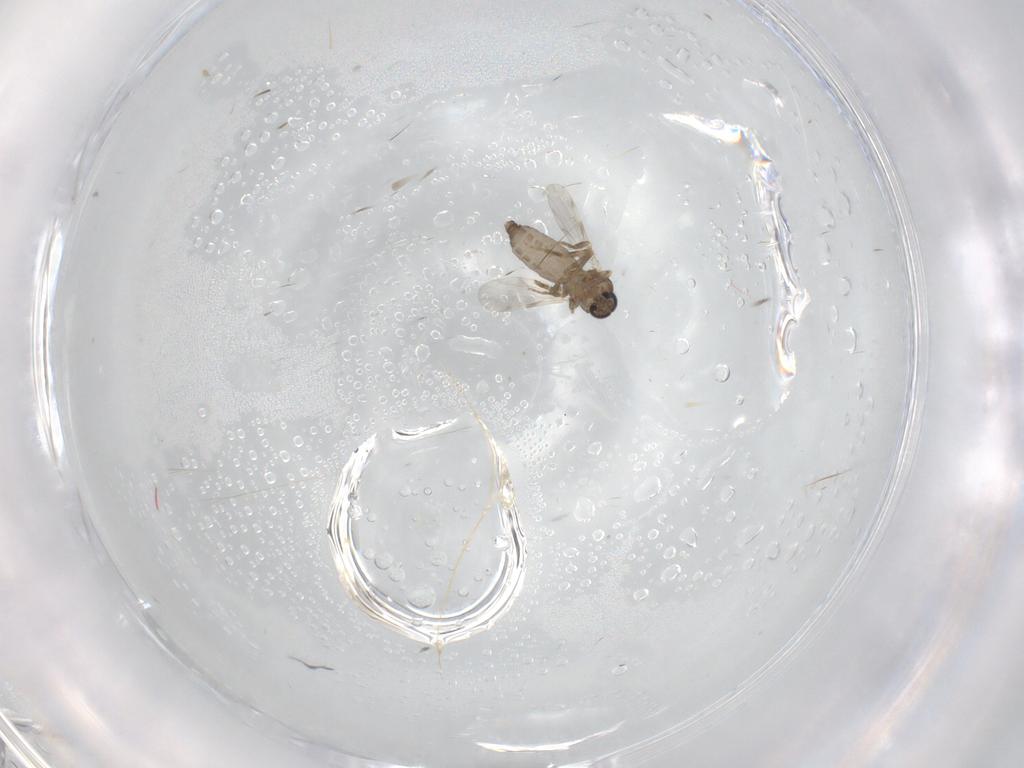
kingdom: Animalia
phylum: Arthropoda
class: Insecta
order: Diptera
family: Ceratopogonidae
